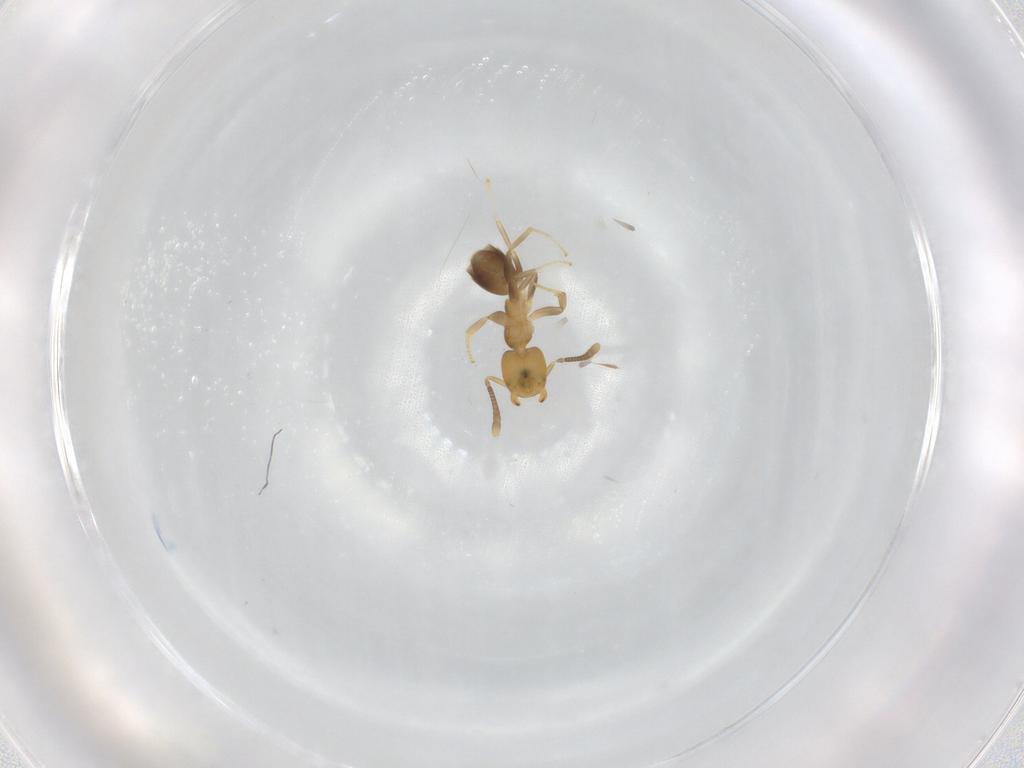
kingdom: Animalia
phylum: Arthropoda
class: Insecta
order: Hymenoptera
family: Formicidae
